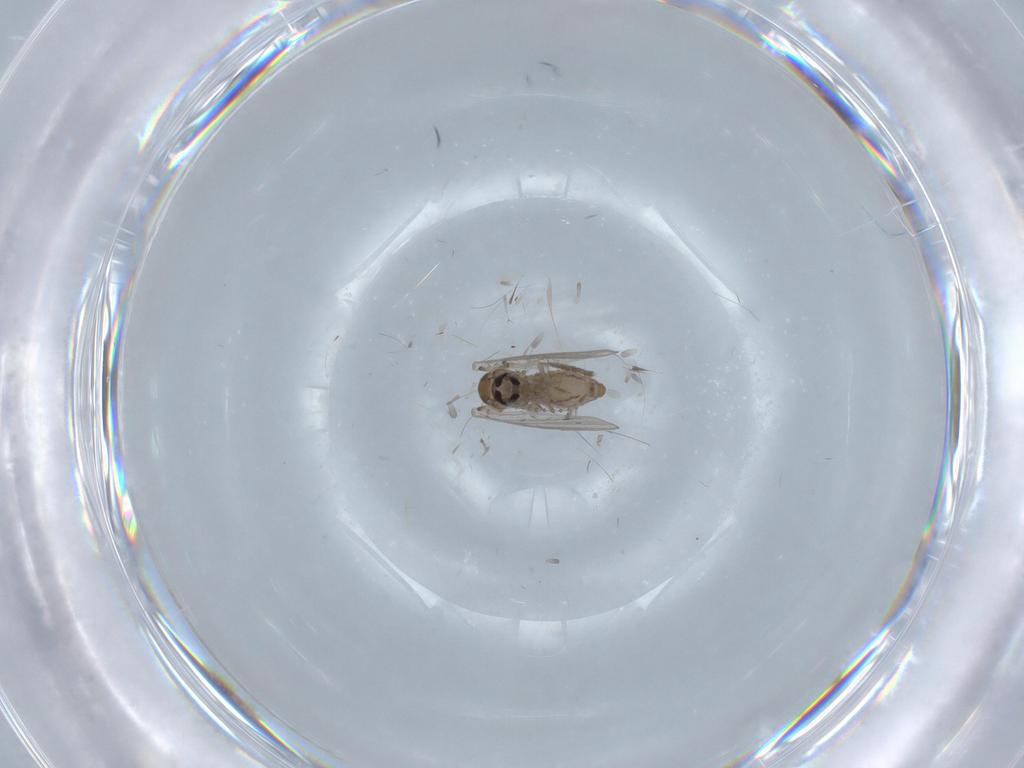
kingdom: Animalia
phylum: Arthropoda
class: Insecta
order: Diptera
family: Psychodidae
